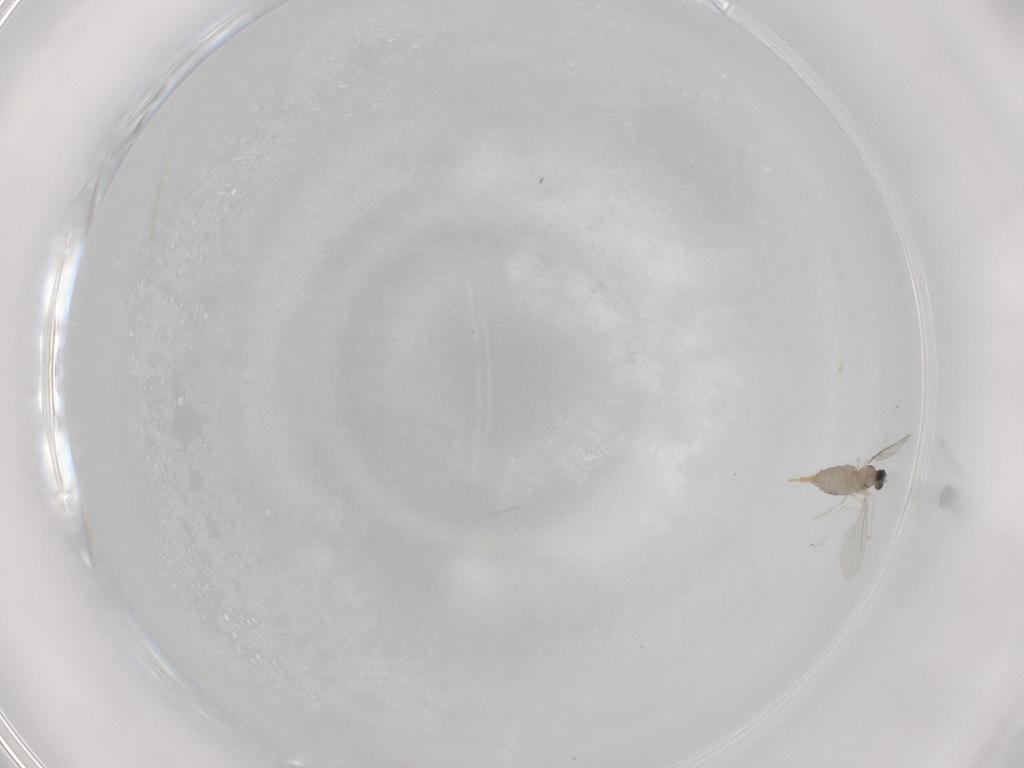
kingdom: Animalia
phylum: Arthropoda
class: Insecta
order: Diptera
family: Cecidomyiidae
